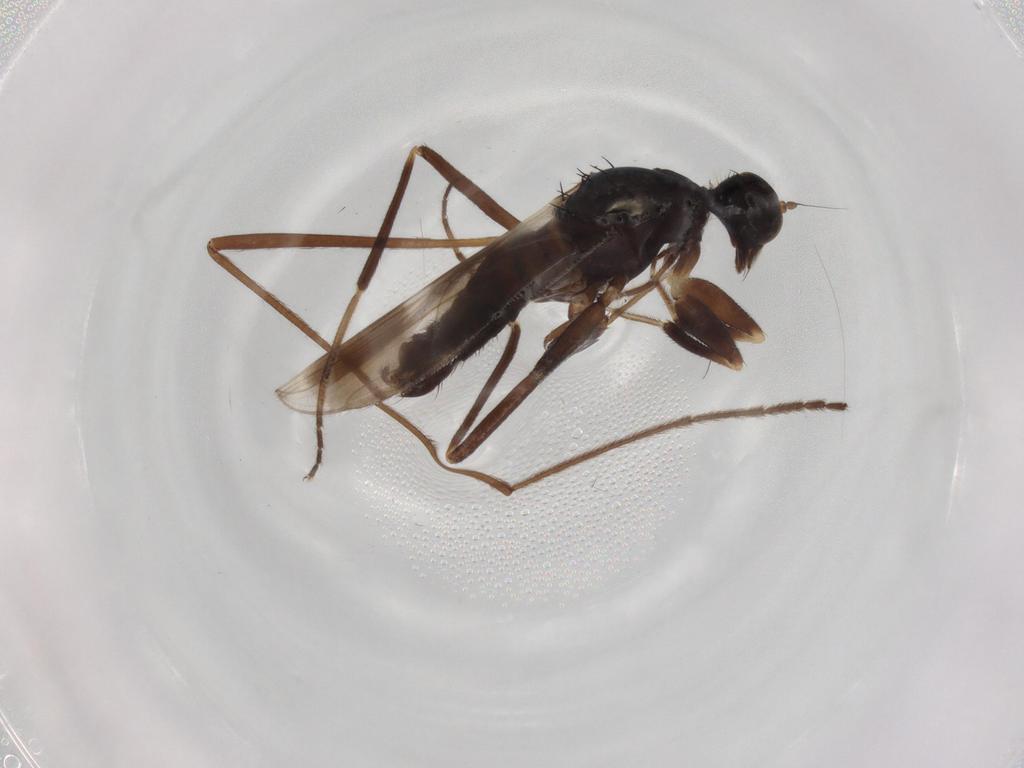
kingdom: Animalia
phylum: Arthropoda
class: Insecta
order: Diptera
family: Hybotidae
